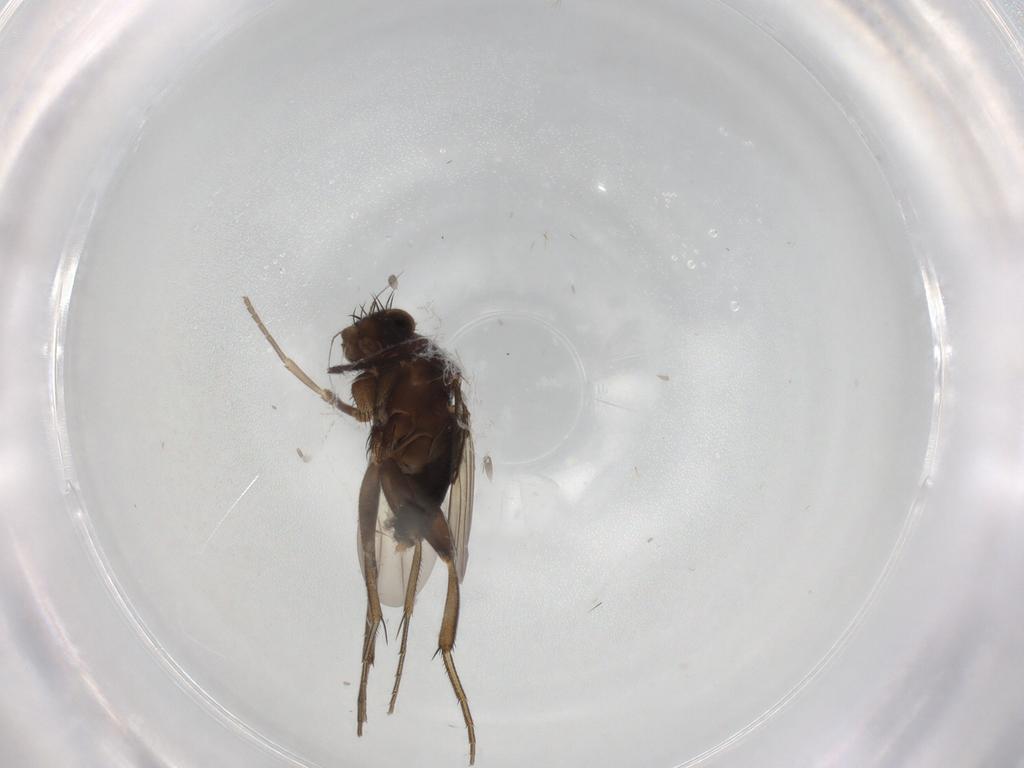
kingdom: Animalia
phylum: Arthropoda
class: Insecta
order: Diptera
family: Phoridae
